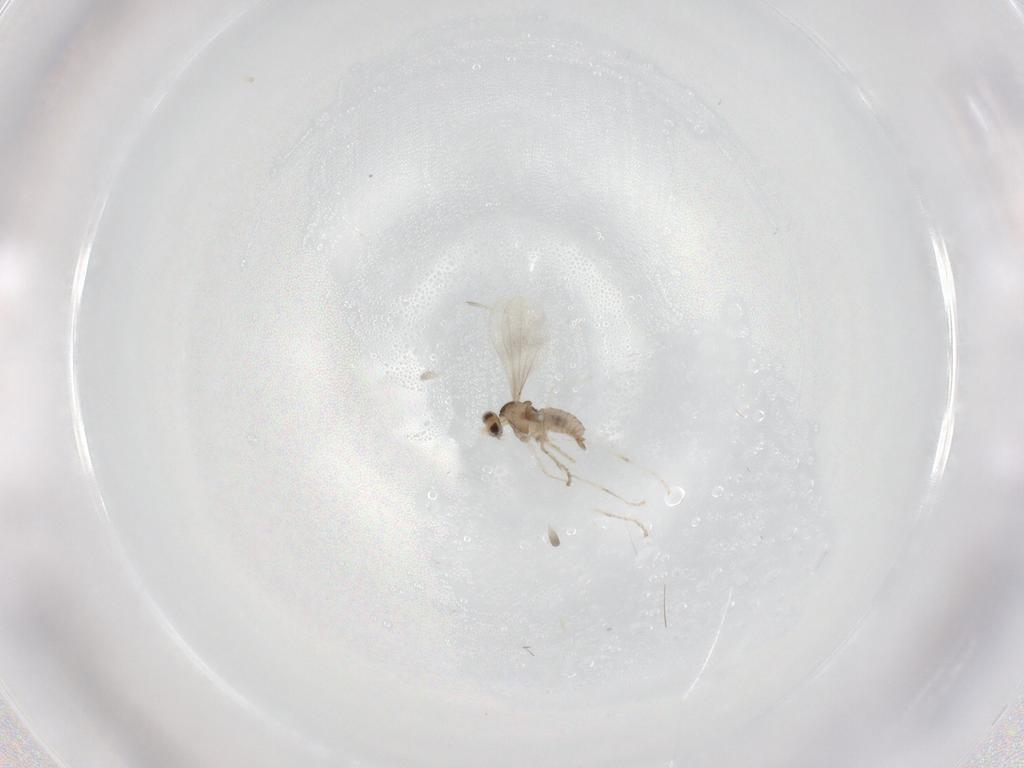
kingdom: Animalia
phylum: Arthropoda
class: Insecta
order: Diptera
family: Cecidomyiidae
